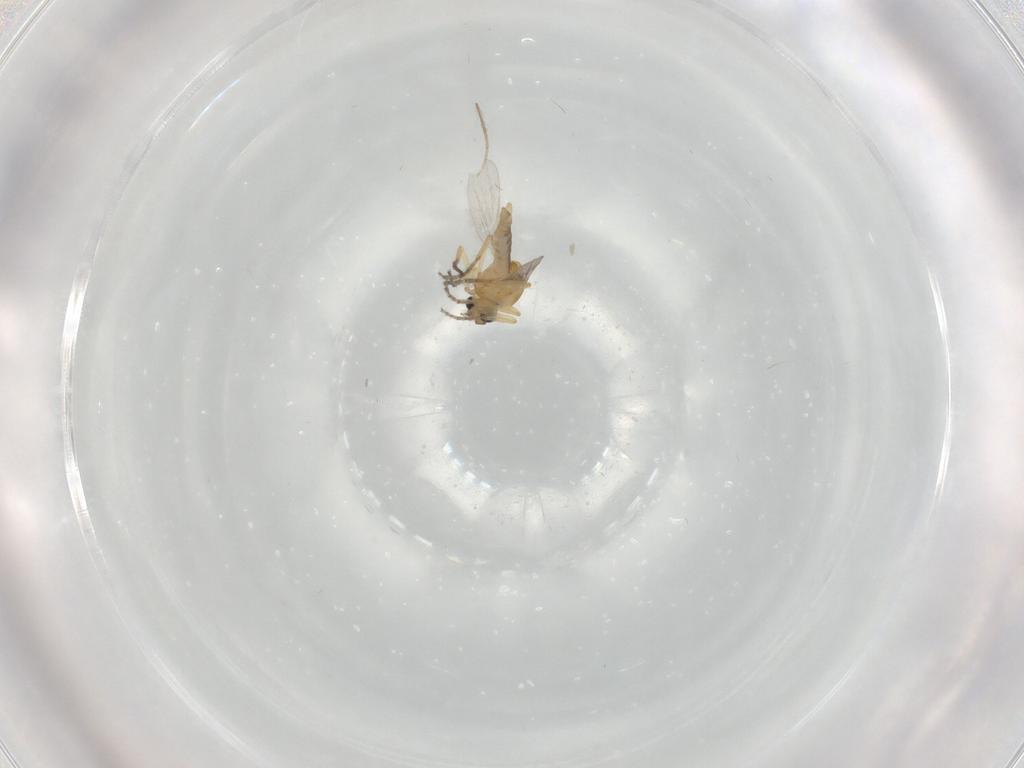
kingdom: Animalia
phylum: Arthropoda
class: Insecta
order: Diptera
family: Ceratopogonidae
